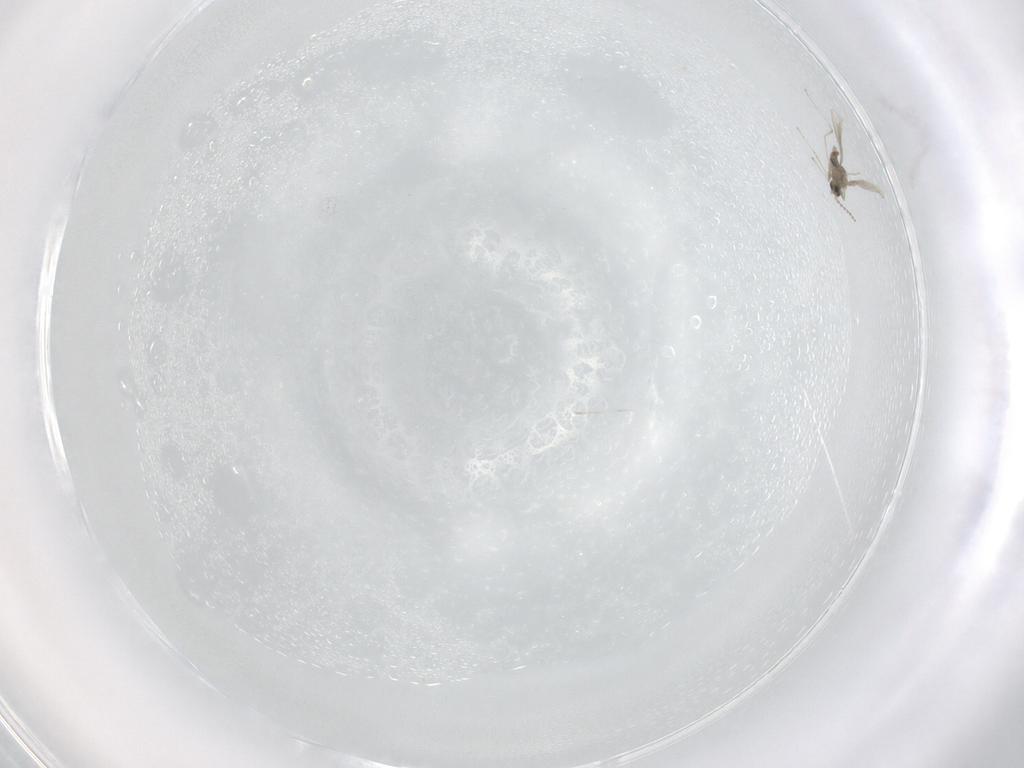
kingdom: Animalia
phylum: Arthropoda
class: Insecta
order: Diptera
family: Cecidomyiidae
